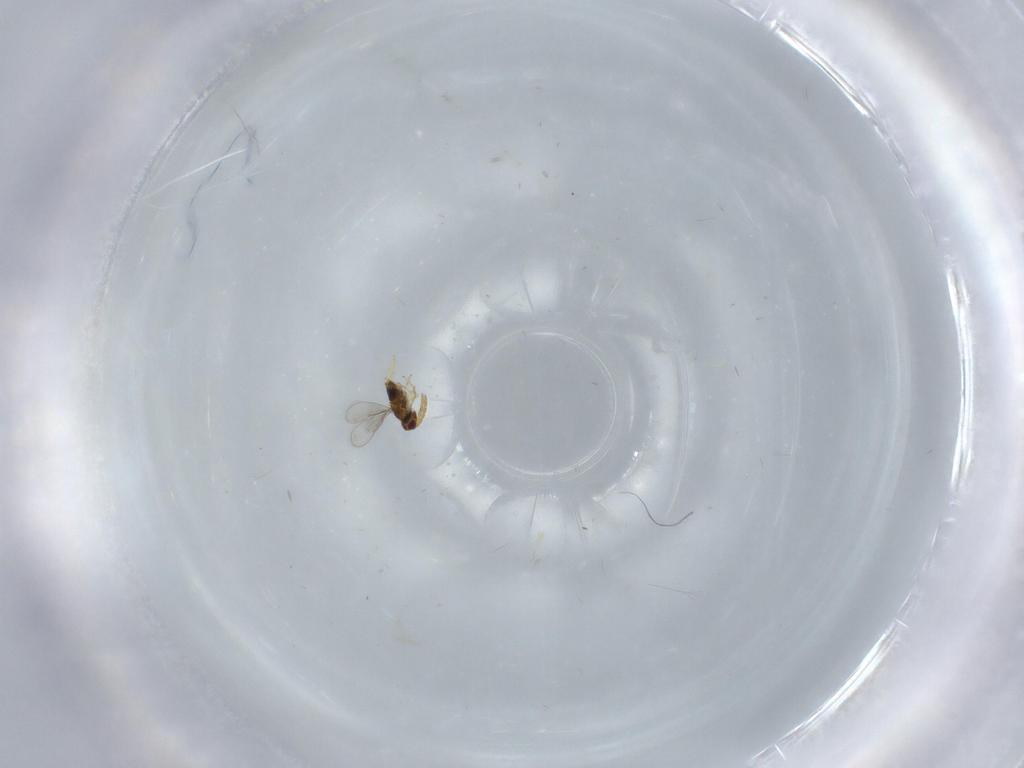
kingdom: Animalia
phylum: Arthropoda
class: Insecta
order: Hymenoptera
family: Aphelinidae
